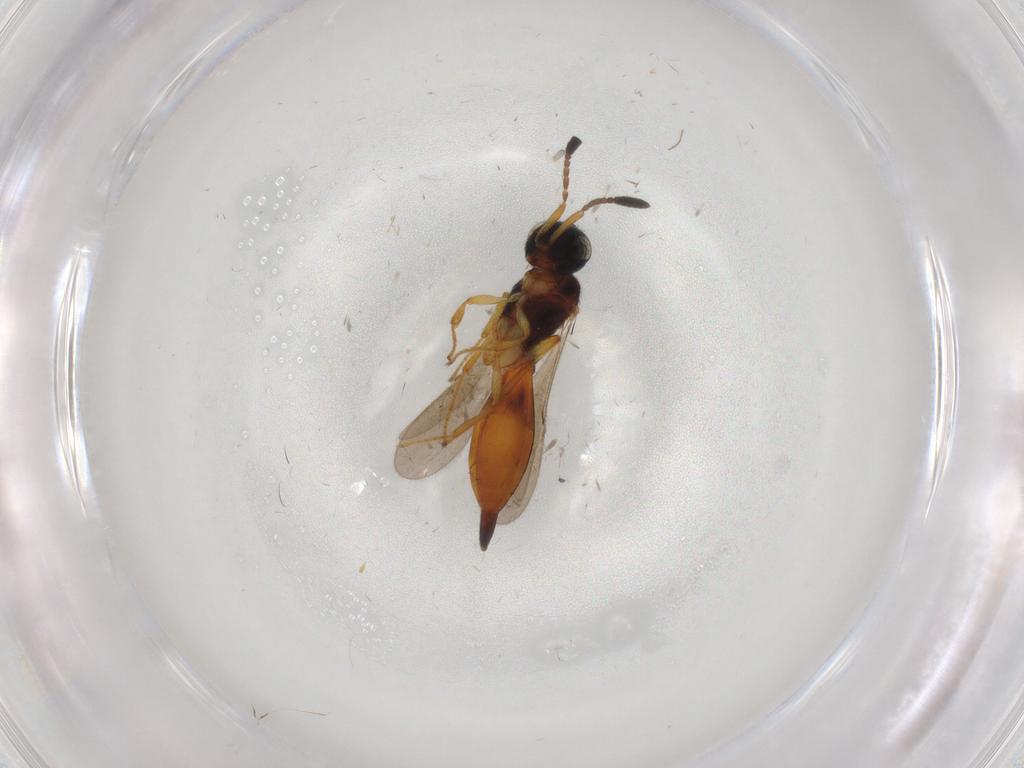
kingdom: Animalia
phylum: Arthropoda
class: Insecta
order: Hymenoptera
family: Scelionidae
